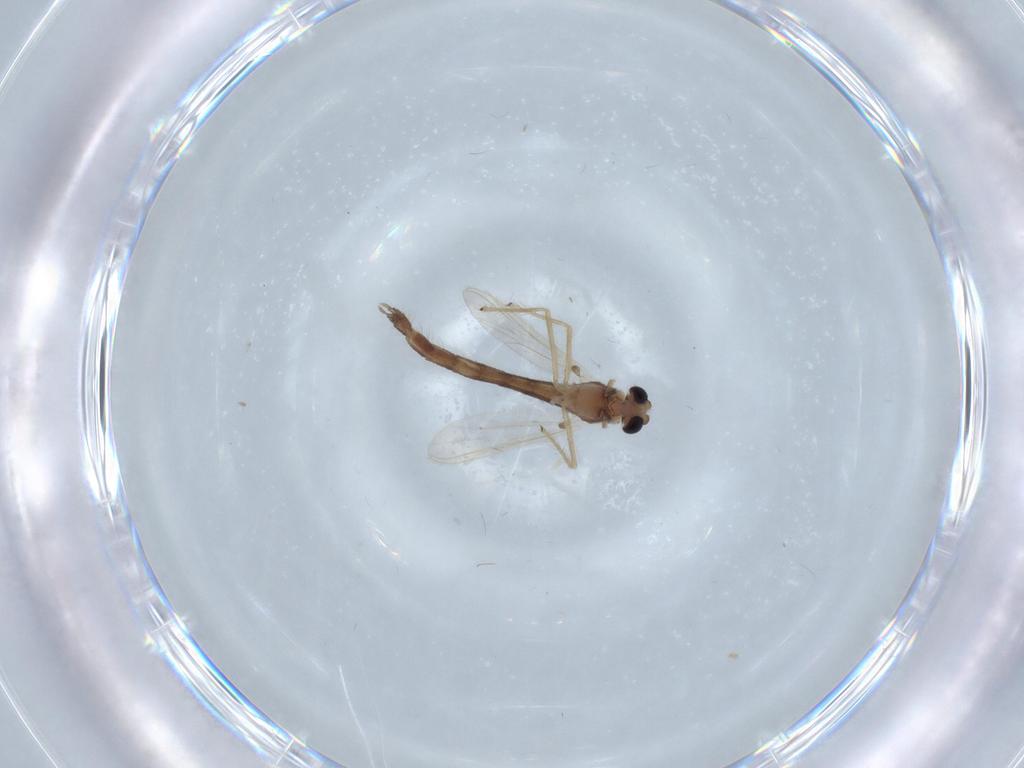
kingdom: Animalia
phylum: Arthropoda
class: Insecta
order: Diptera
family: Chironomidae
